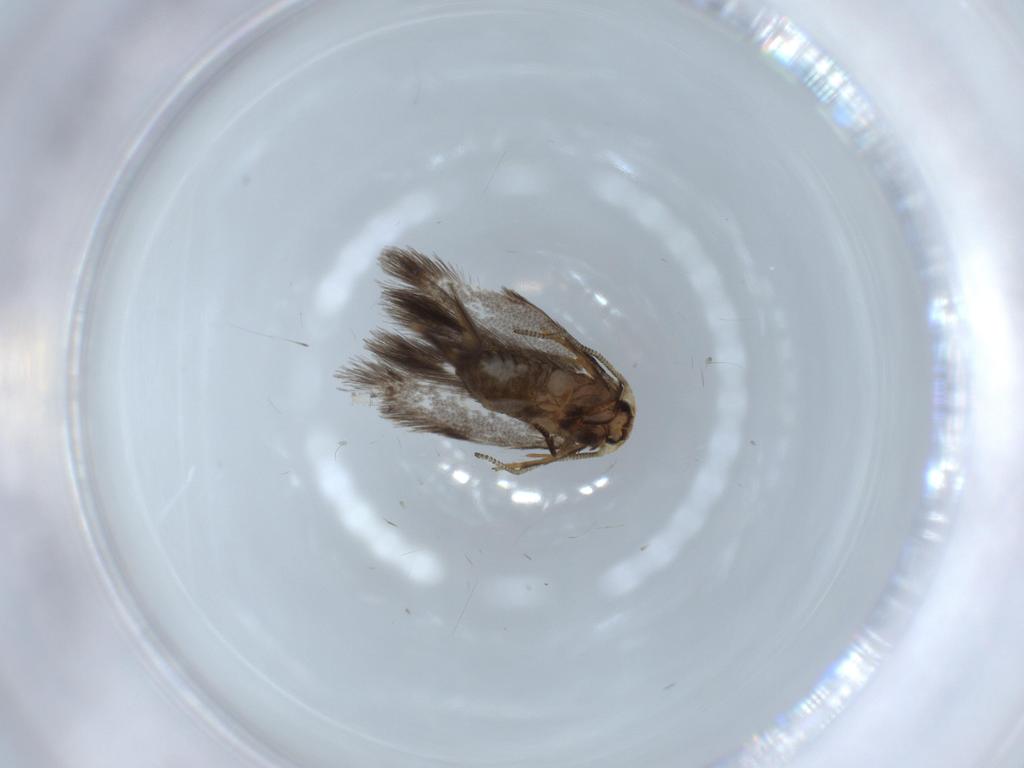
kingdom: Animalia
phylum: Arthropoda
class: Insecta
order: Lepidoptera
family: Nepticulidae
